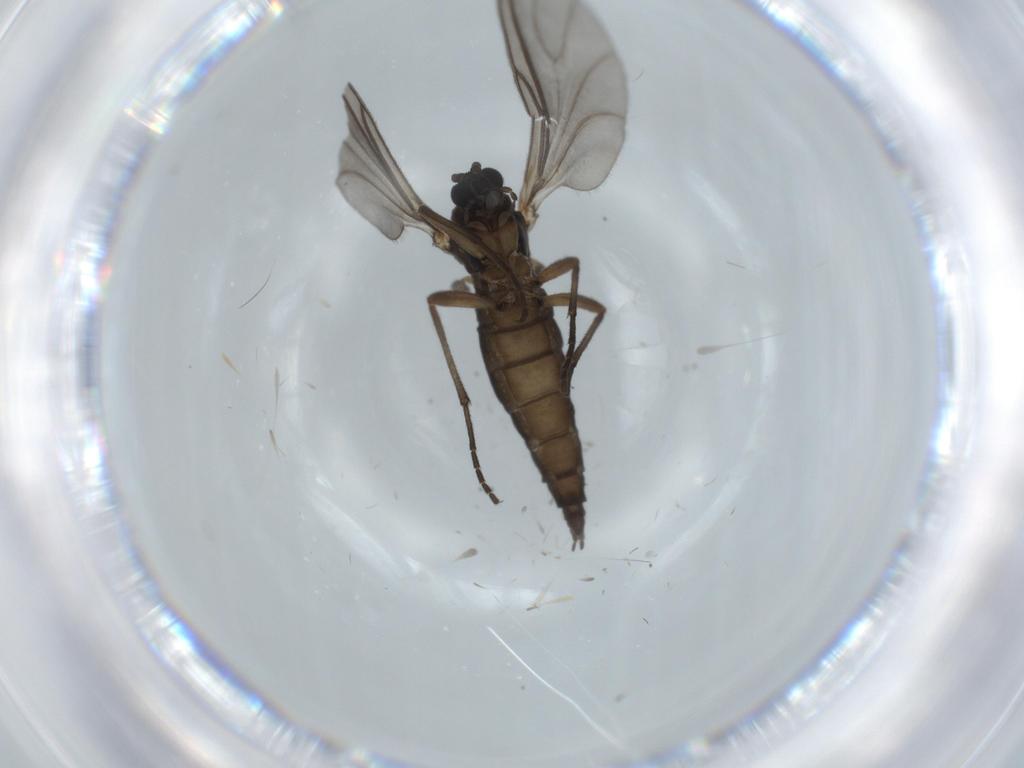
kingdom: Animalia
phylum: Arthropoda
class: Insecta
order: Diptera
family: Sciaridae
